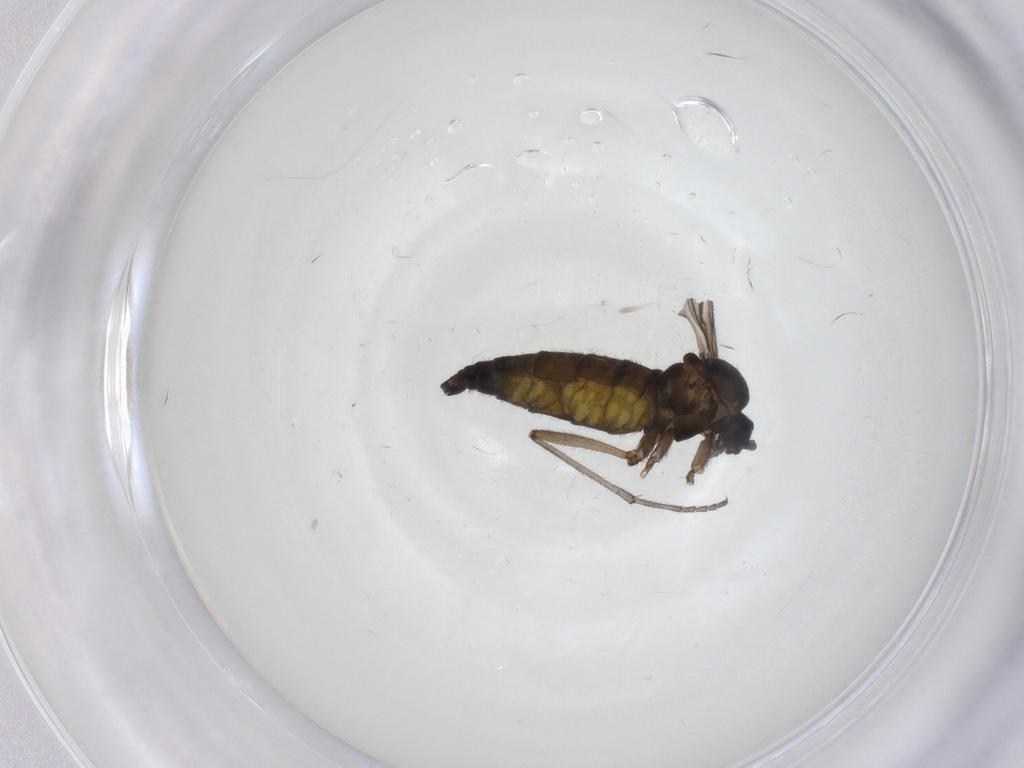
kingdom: Animalia
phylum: Arthropoda
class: Insecta
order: Diptera
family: Sciaridae
